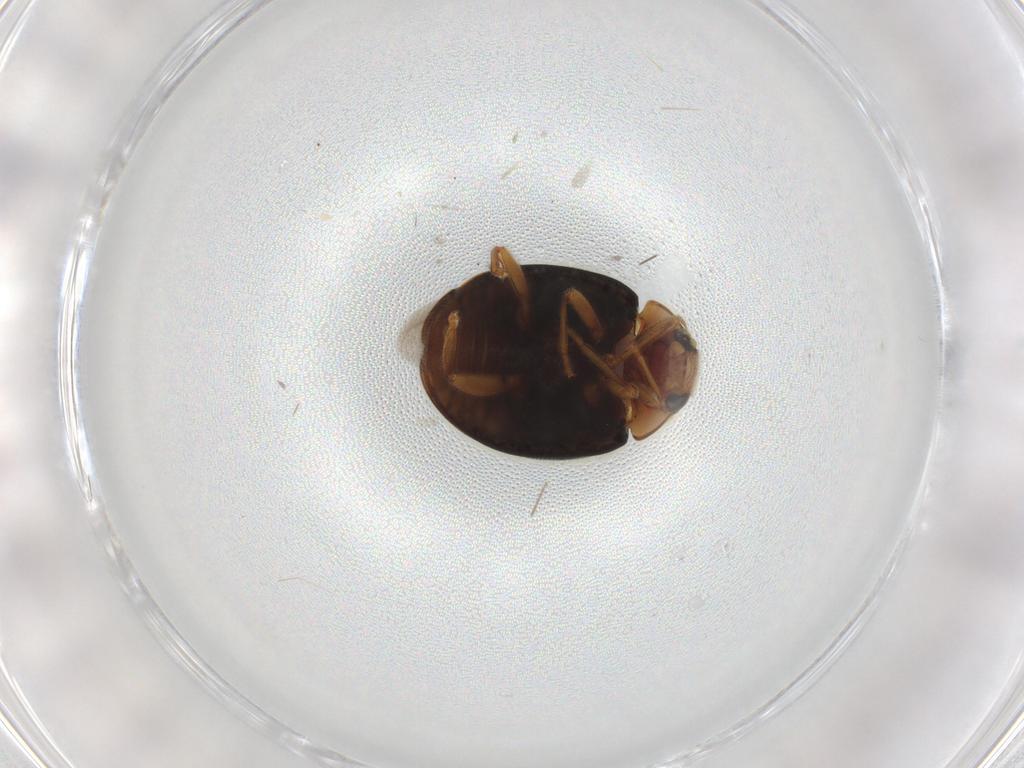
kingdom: Animalia
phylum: Arthropoda
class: Insecta
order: Coleoptera
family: Coccinellidae
